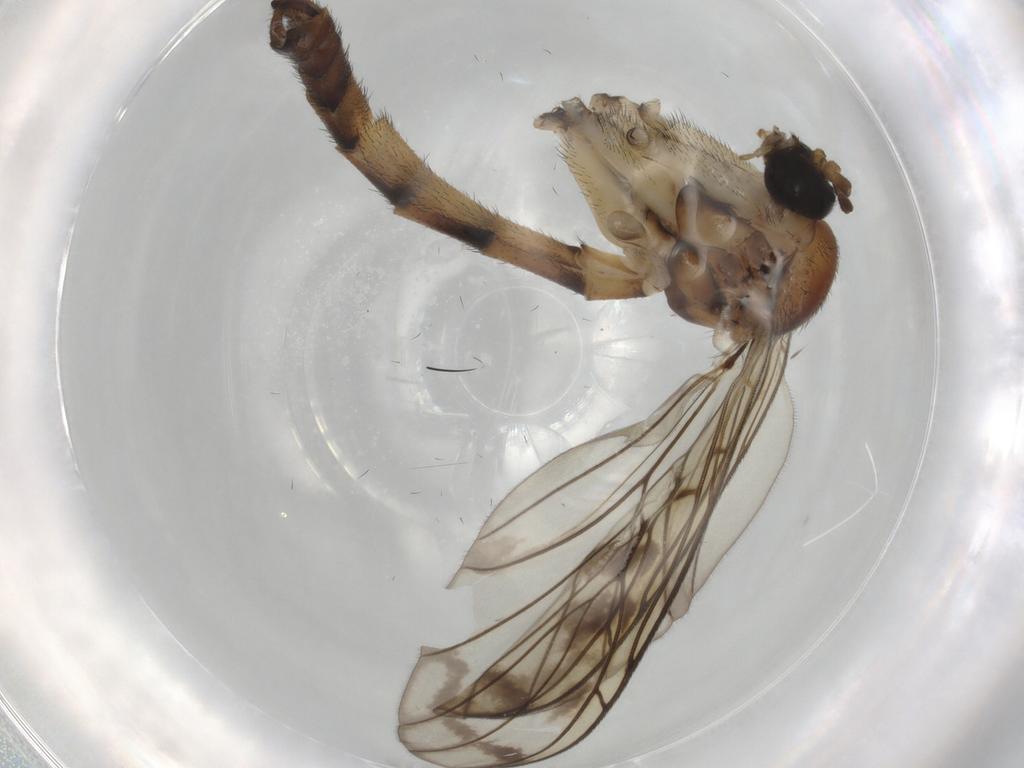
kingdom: Animalia
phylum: Arthropoda
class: Insecta
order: Diptera
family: Keroplatidae
